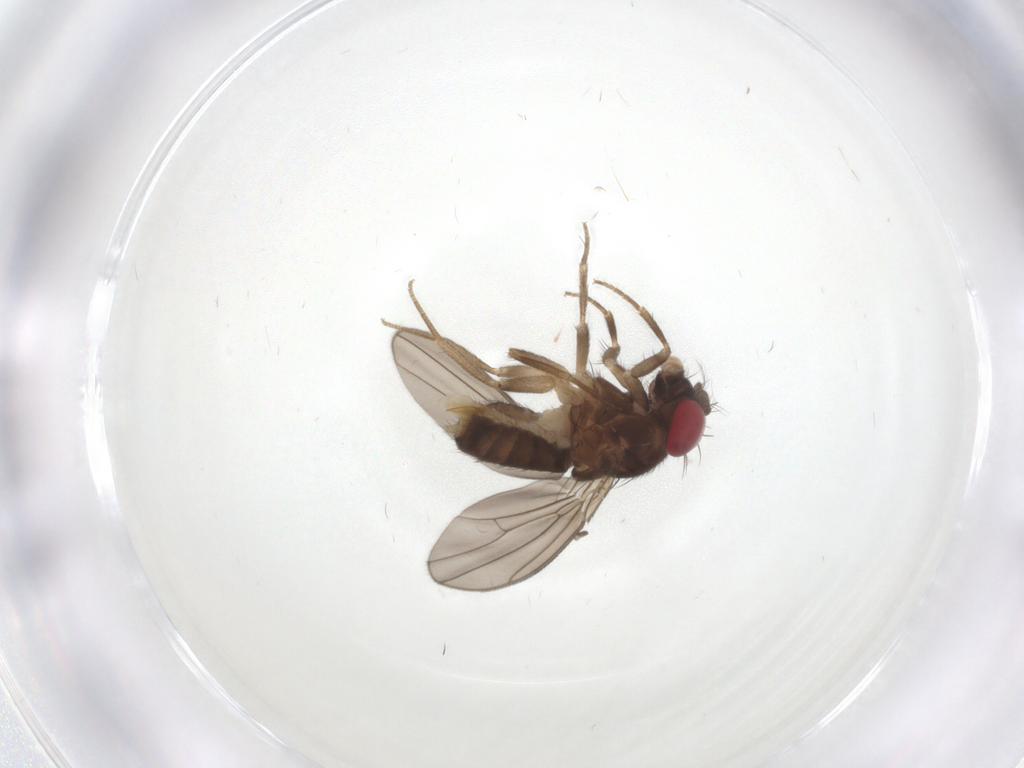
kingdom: Animalia
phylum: Arthropoda
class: Insecta
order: Diptera
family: Drosophilidae
